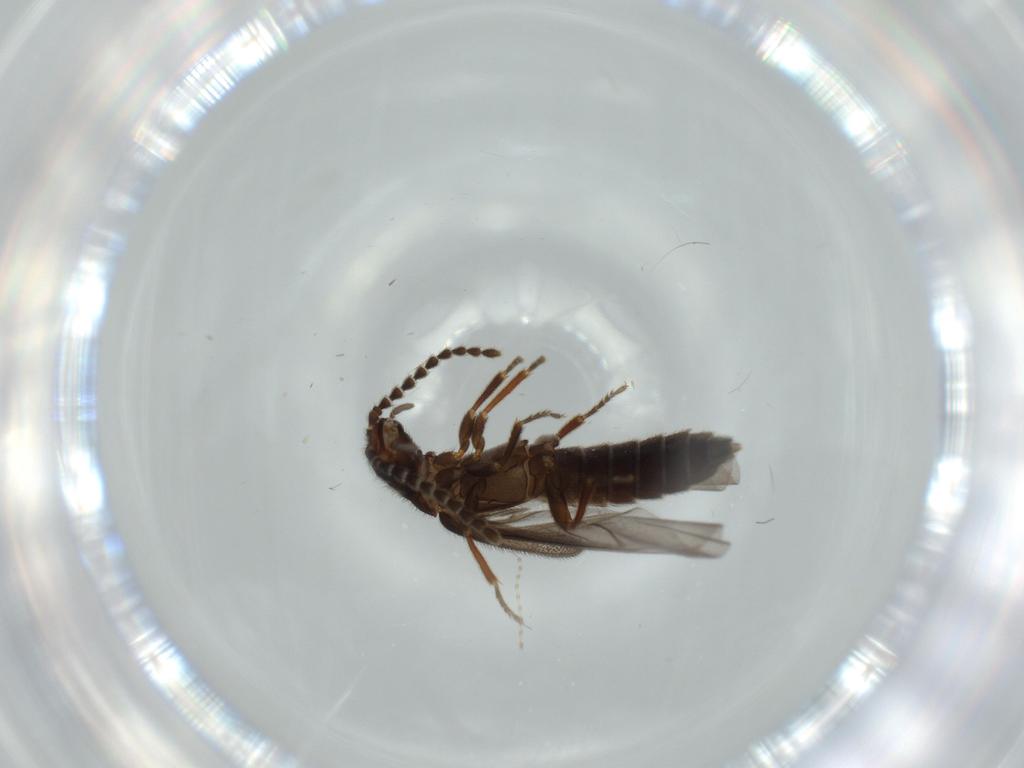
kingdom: Animalia
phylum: Arthropoda
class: Insecta
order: Coleoptera
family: Omethidae
